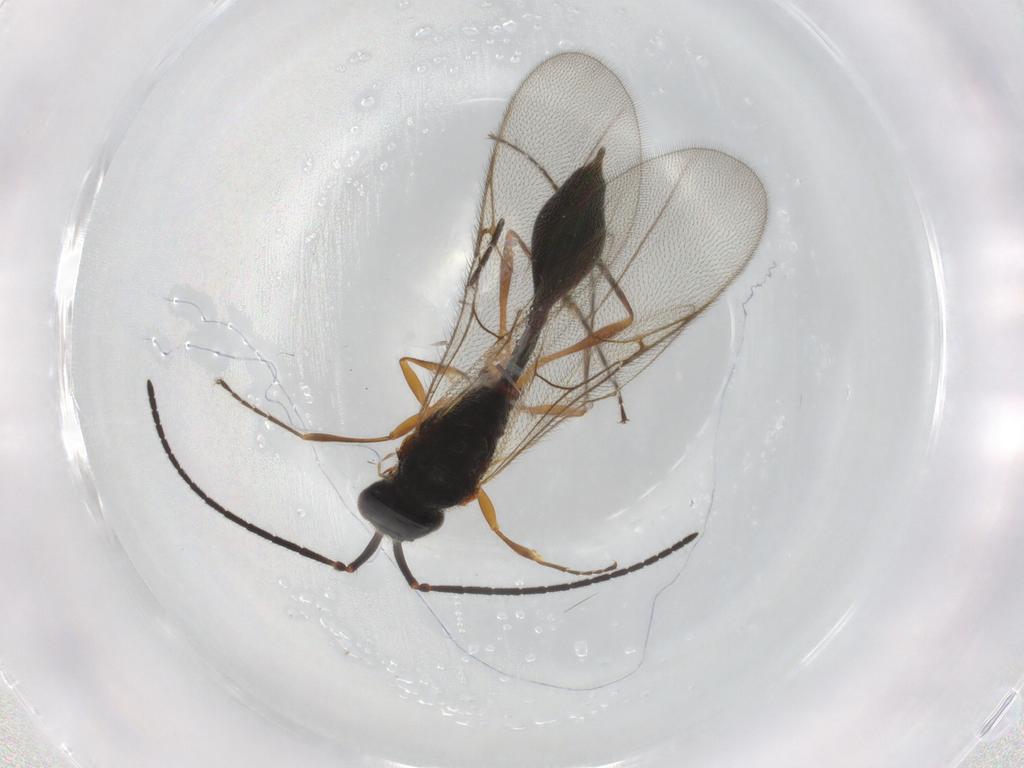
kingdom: Animalia
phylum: Arthropoda
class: Insecta
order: Hymenoptera
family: Diapriidae
